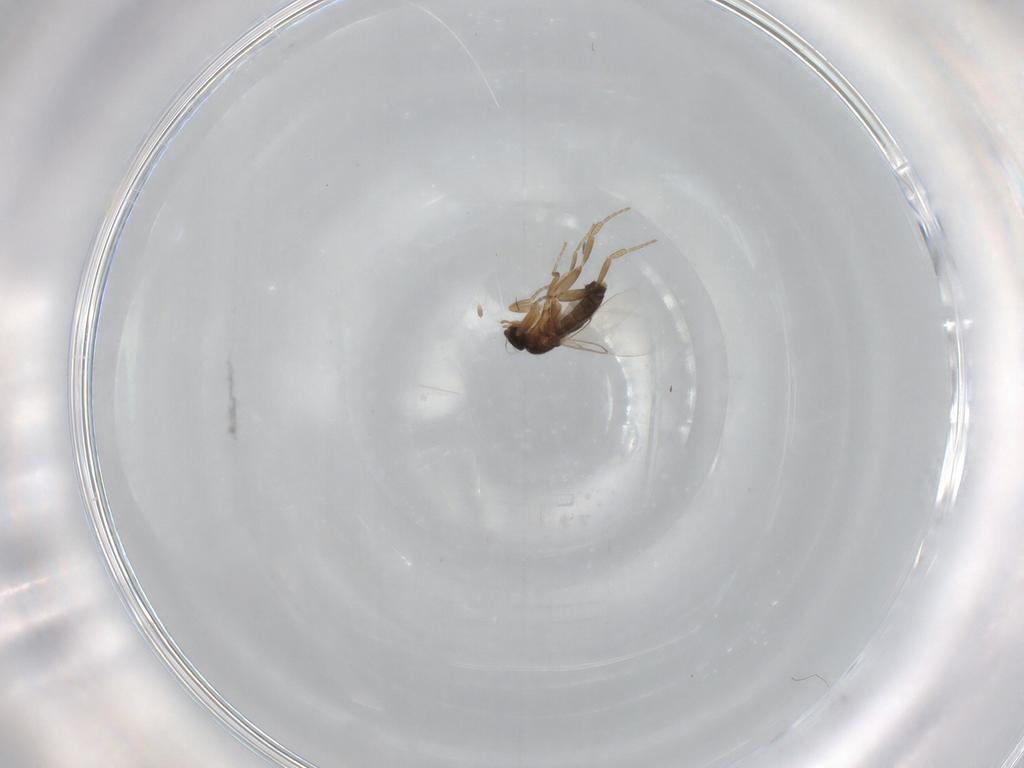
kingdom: Animalia
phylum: Arthropoda
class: Insecta
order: Diptera
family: Phoridae
